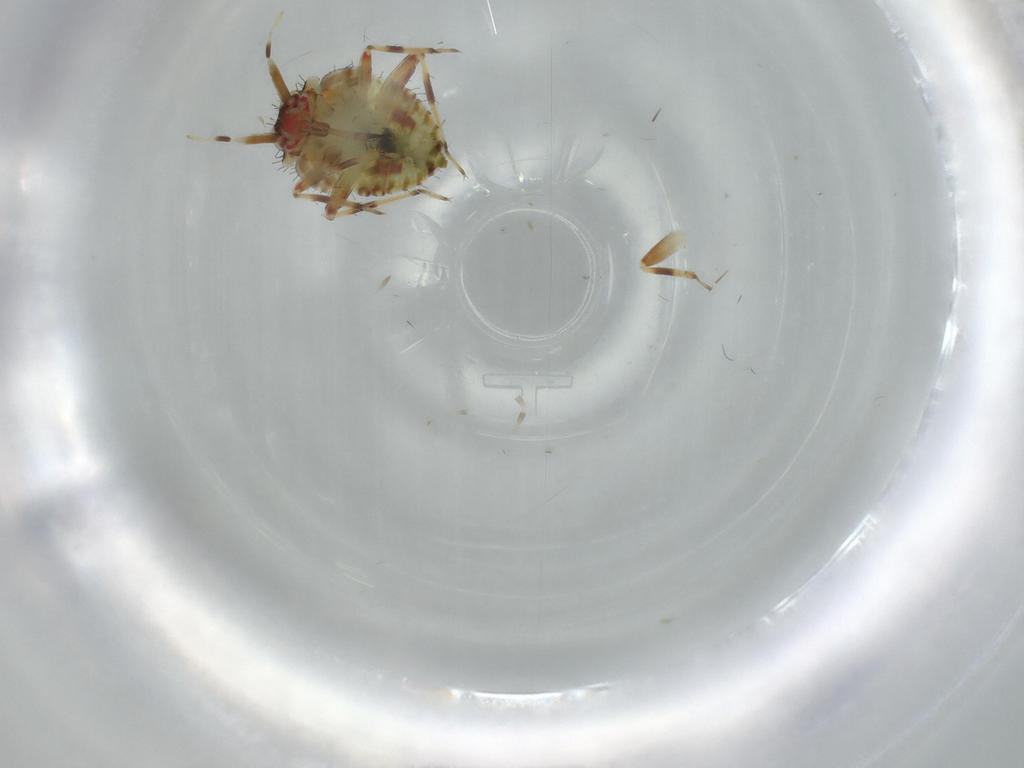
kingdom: Animalia
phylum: Arthropoda
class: Insecta
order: Hemiptera
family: Miridae
